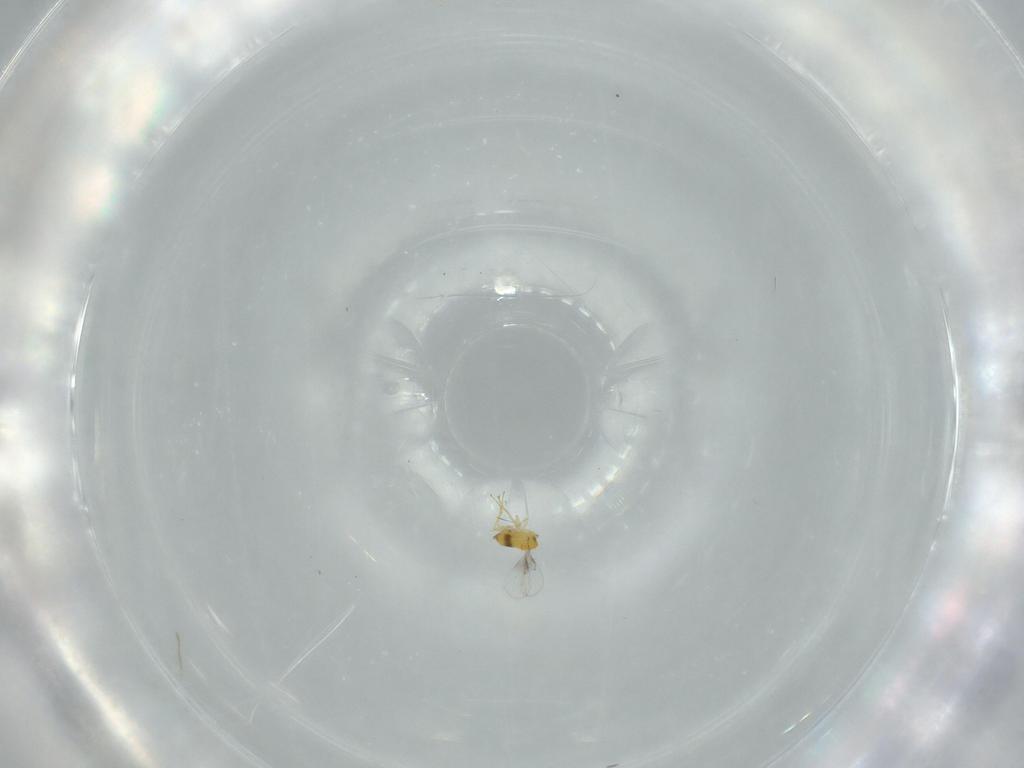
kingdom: Animalia
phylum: Arthropoda
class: Insecta
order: Hymenoptera
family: Trichogrammatidae
